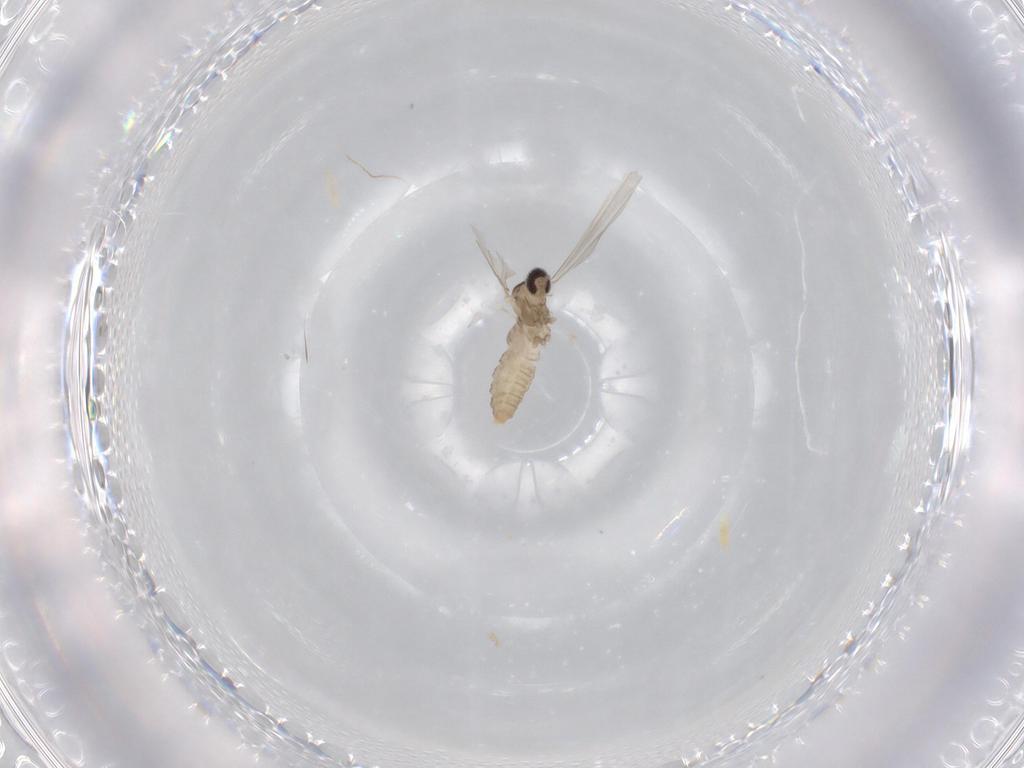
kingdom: Animalia
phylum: Arthropoda
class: Insecta
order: Diptera
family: Cecidomyiidae
